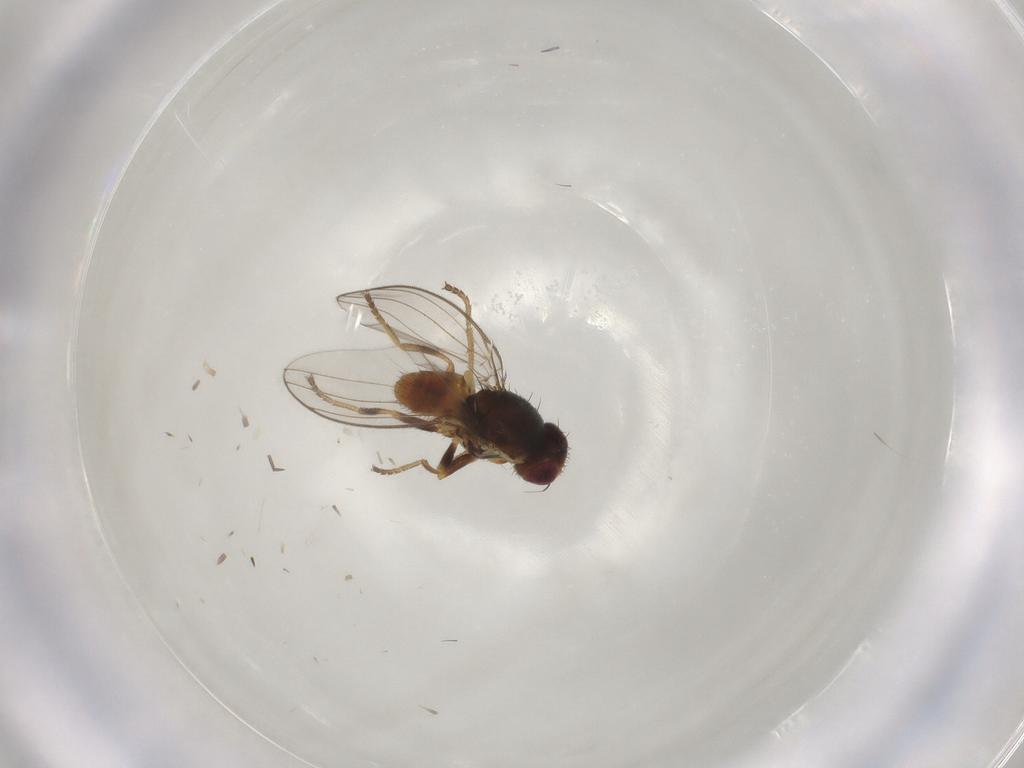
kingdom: Animalia
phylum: Arthropoda
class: Insecta
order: Diptera
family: Chloropidae
